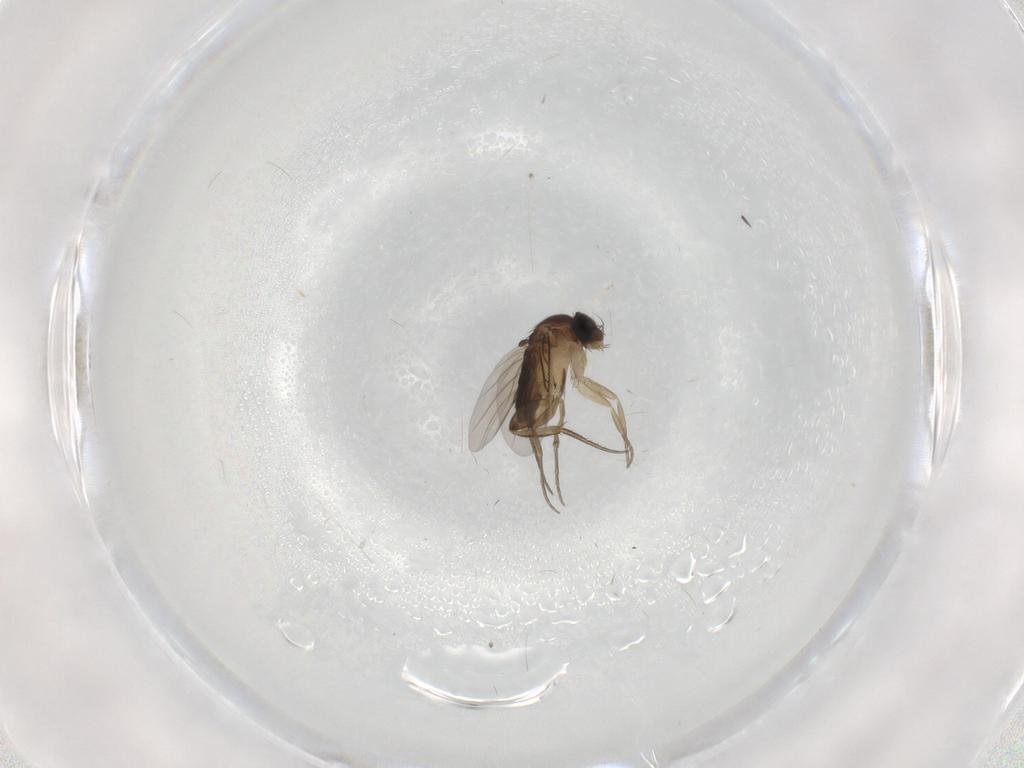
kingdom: Animalia
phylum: Arthropoda
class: Insecta
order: Diptera
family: Phoridae
